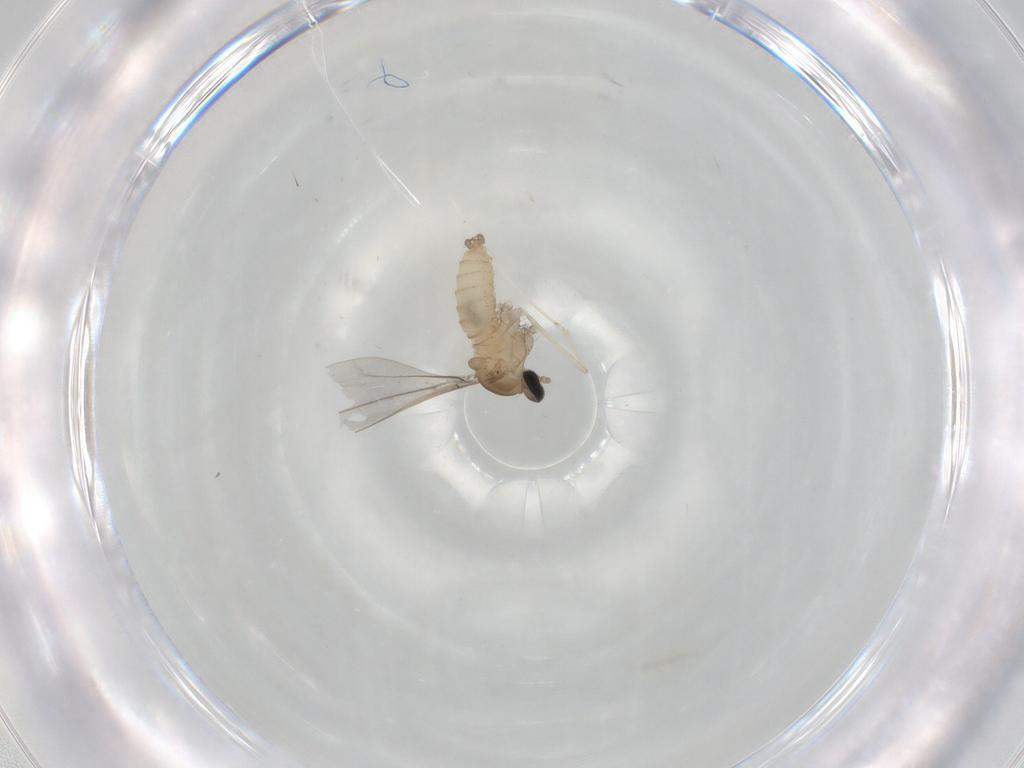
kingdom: Animalia
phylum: Arthropoda
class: Insecta
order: Diptera
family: Cecidomyiidae
